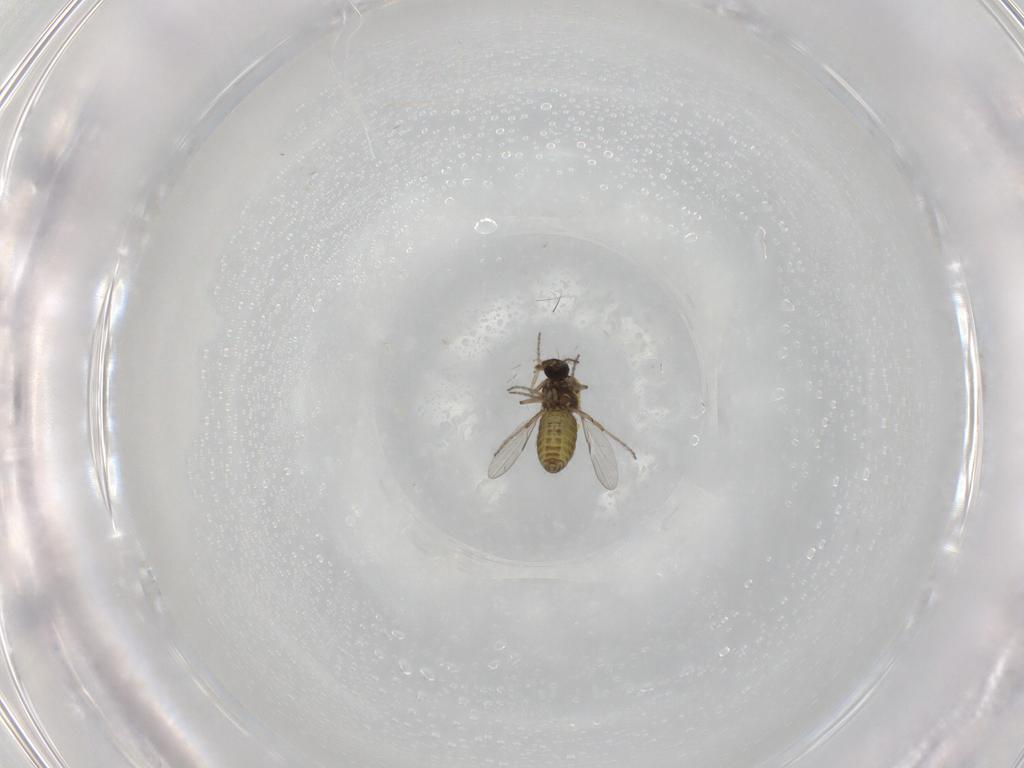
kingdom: Animalia
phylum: Arthropoda
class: Insecta
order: Diptera
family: Ceratopogonidae
